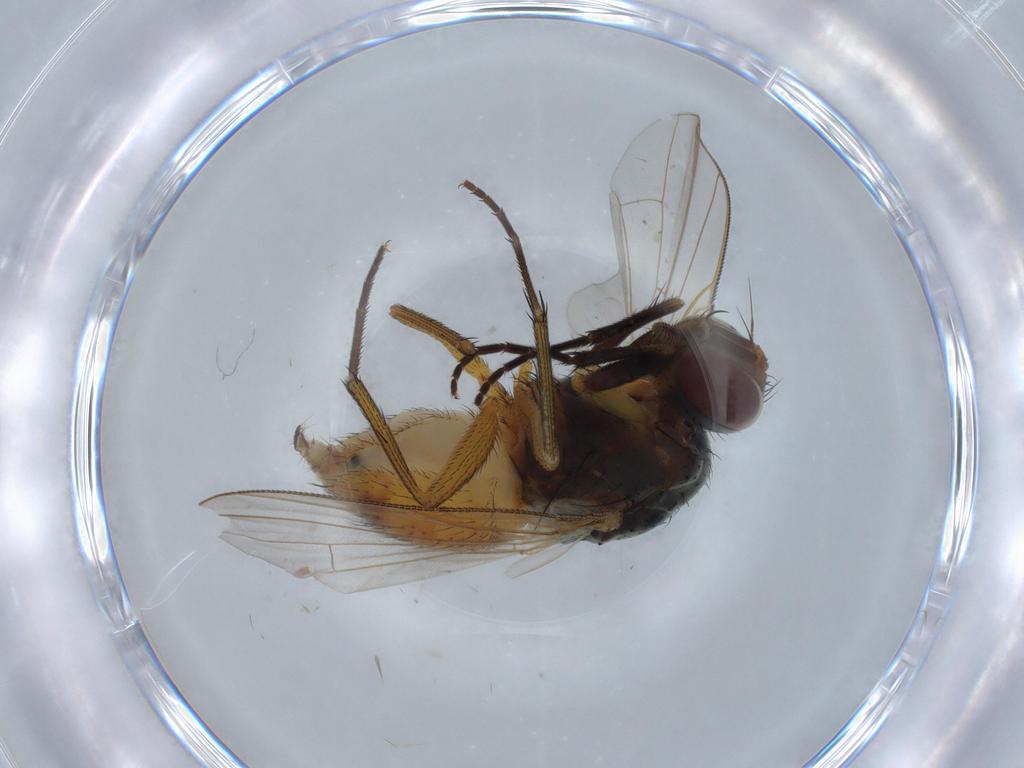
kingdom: Animalia
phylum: Arthropoda
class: Insecta
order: Diptera
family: Muscidae
